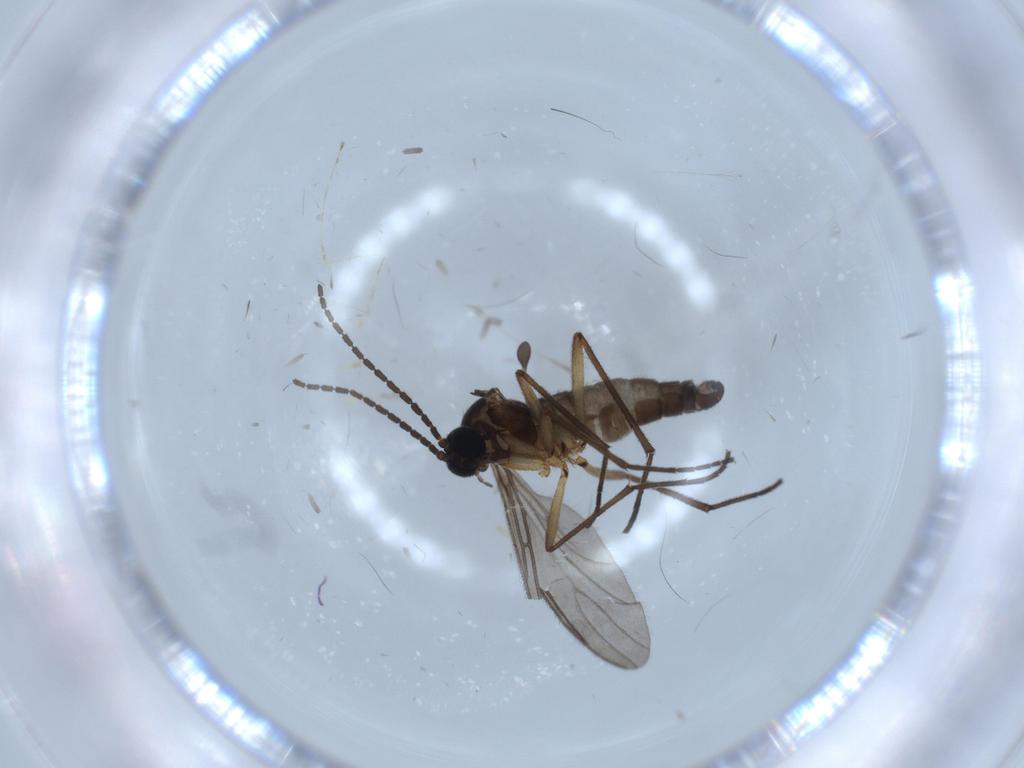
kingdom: Animalia
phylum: Arthropoda
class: Insecta
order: Diptera
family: Cecidomyiidae
